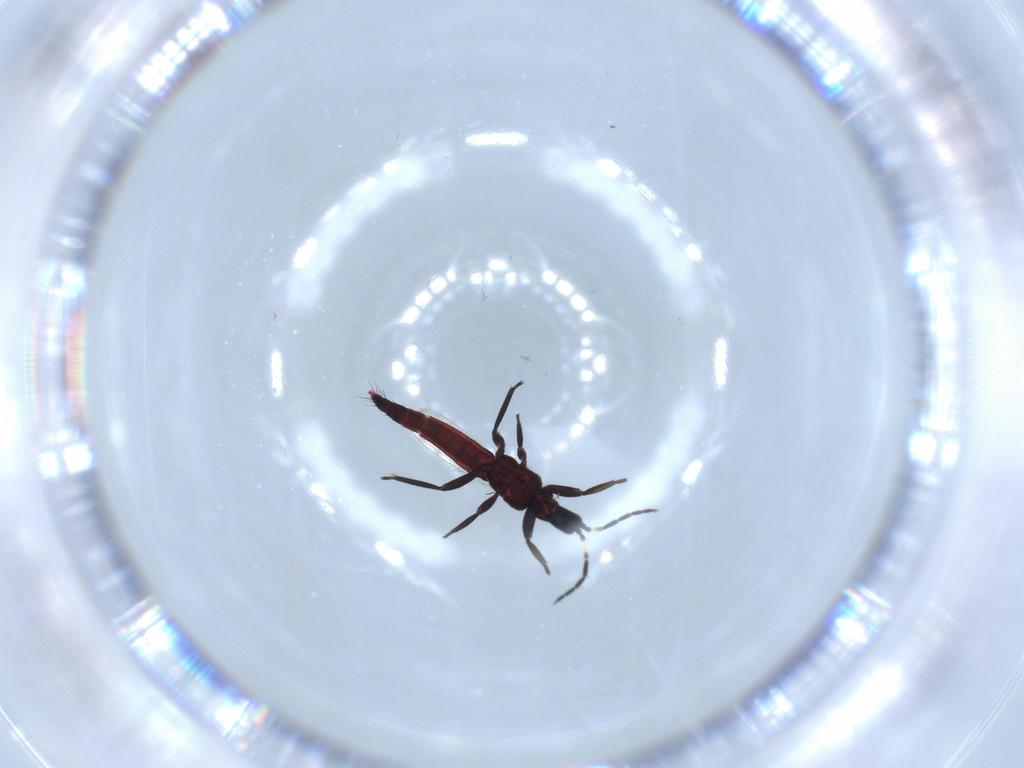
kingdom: Animalia
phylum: Arthropoda
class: Insecta
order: Thysanoptera
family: Aeolothripidae
